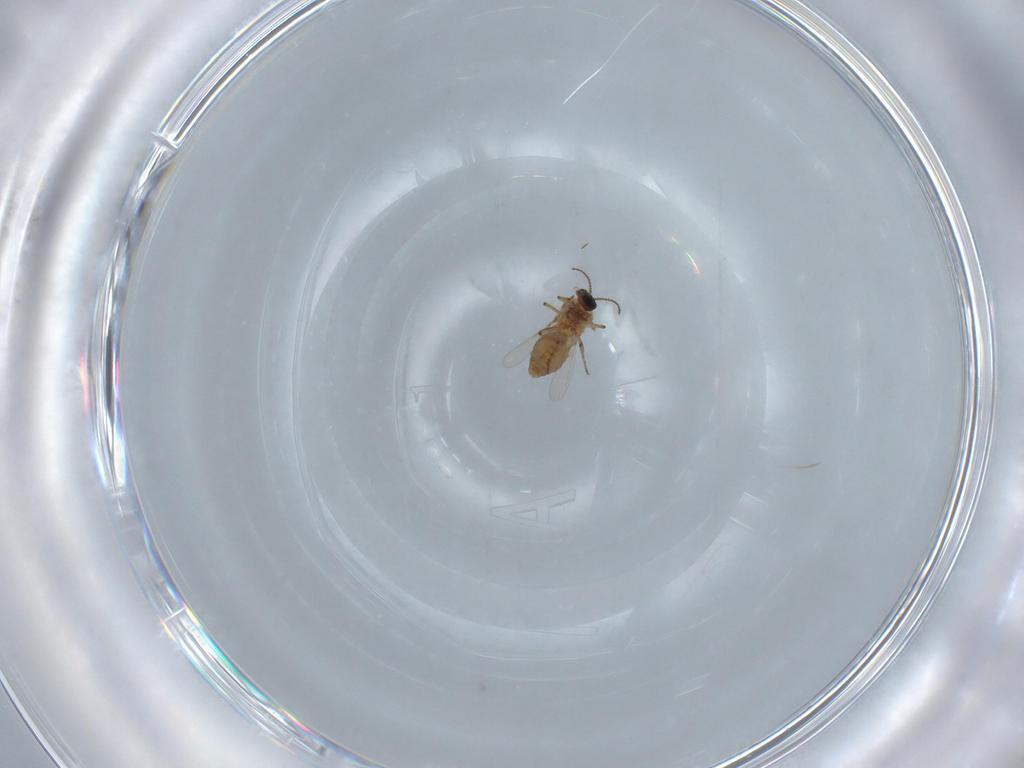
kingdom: Animalia
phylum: Arthropoda
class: Insecta
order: Diptera
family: Ceratopogonidae
